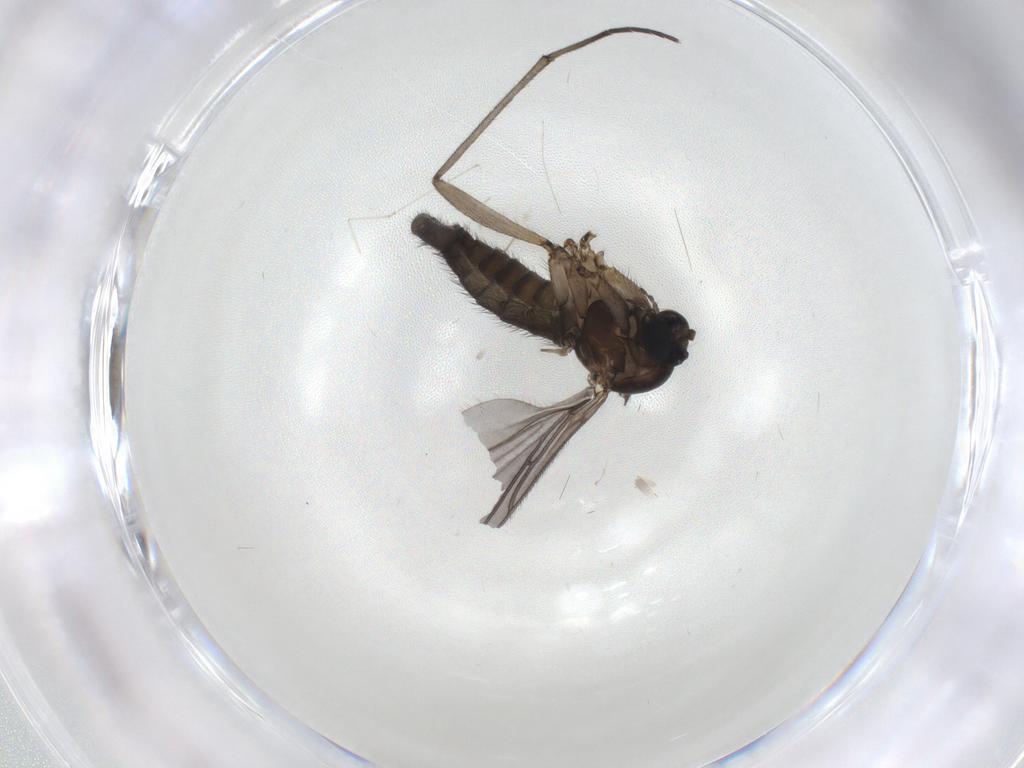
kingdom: Animalia
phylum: Arthropoda
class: Insecta
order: Diptera
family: Sciaridae
